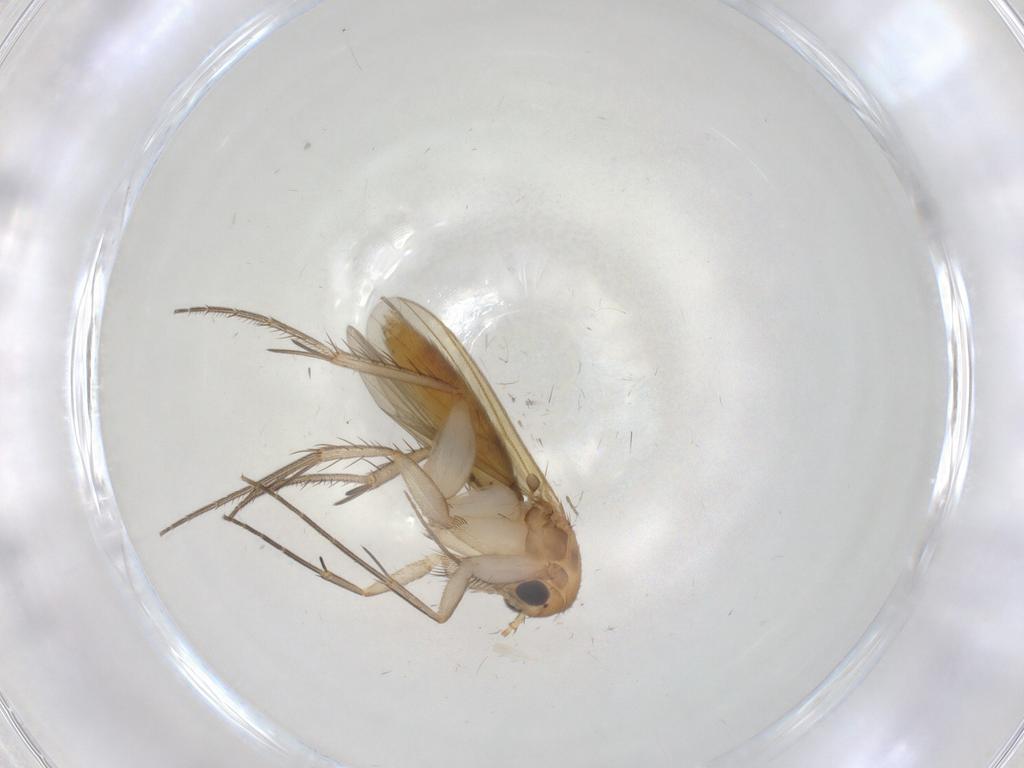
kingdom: Animalia
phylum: Arthropoda
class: Insecta
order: Diptera
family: Mycetophilidae
